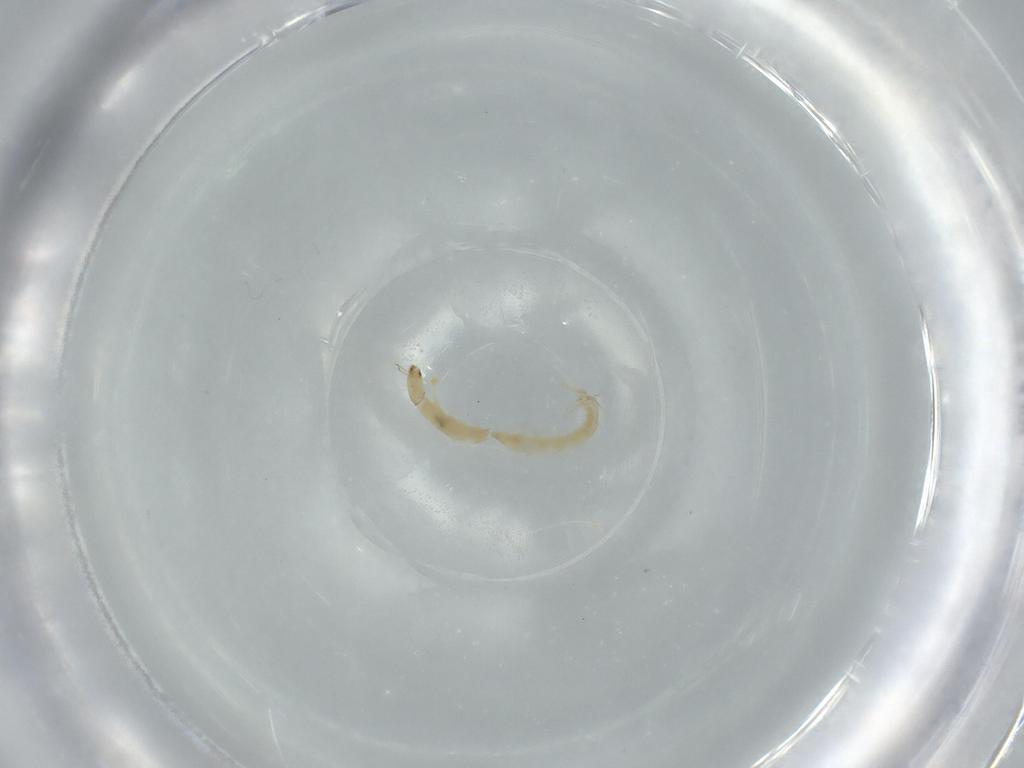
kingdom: Animalia
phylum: Arthropoda
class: Insecta
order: Diptera
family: Chironomidae
